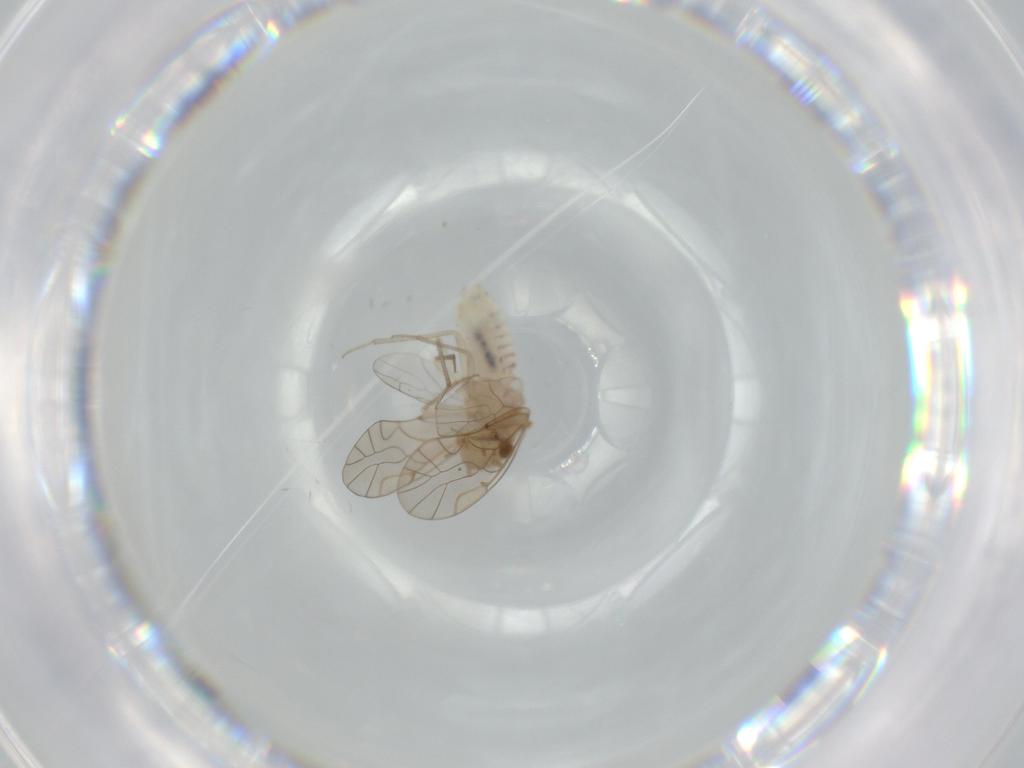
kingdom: Animalia
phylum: Arthropoda
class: Insecta
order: Psocodea
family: Lachesillidae
